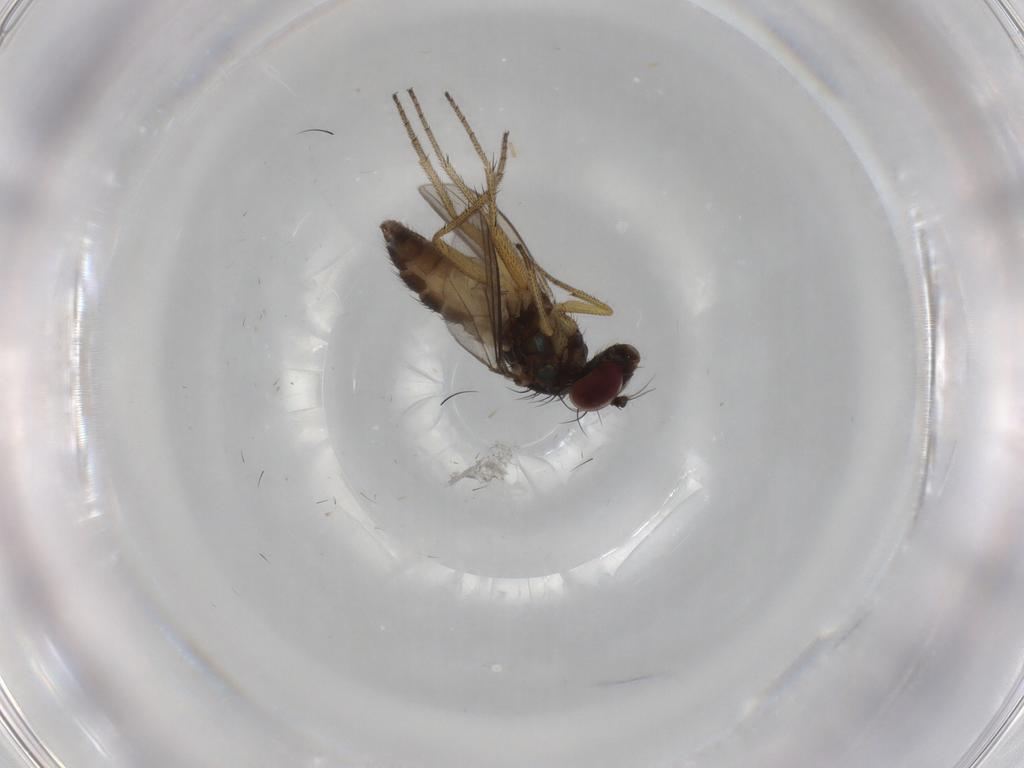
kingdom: Animalia
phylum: Arthropoda
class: Insecta
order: Diptera
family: Dolichopodidae
